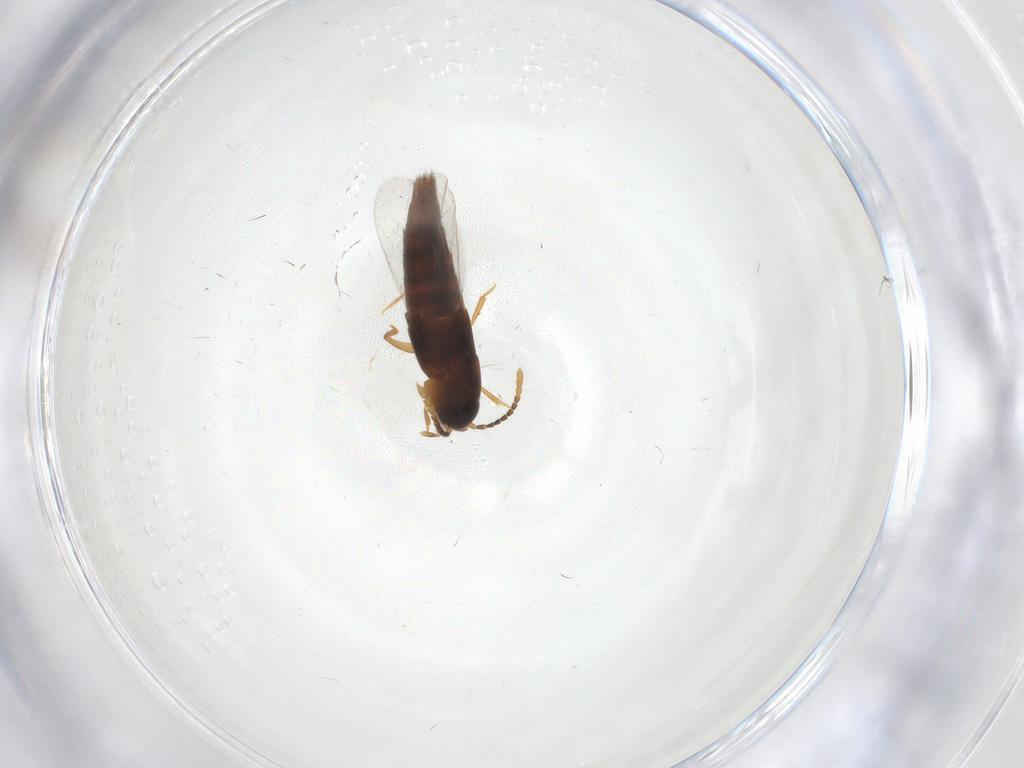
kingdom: Animalia
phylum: Arthropoda
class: Insecta
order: Coleoptera
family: Staphylinidae
